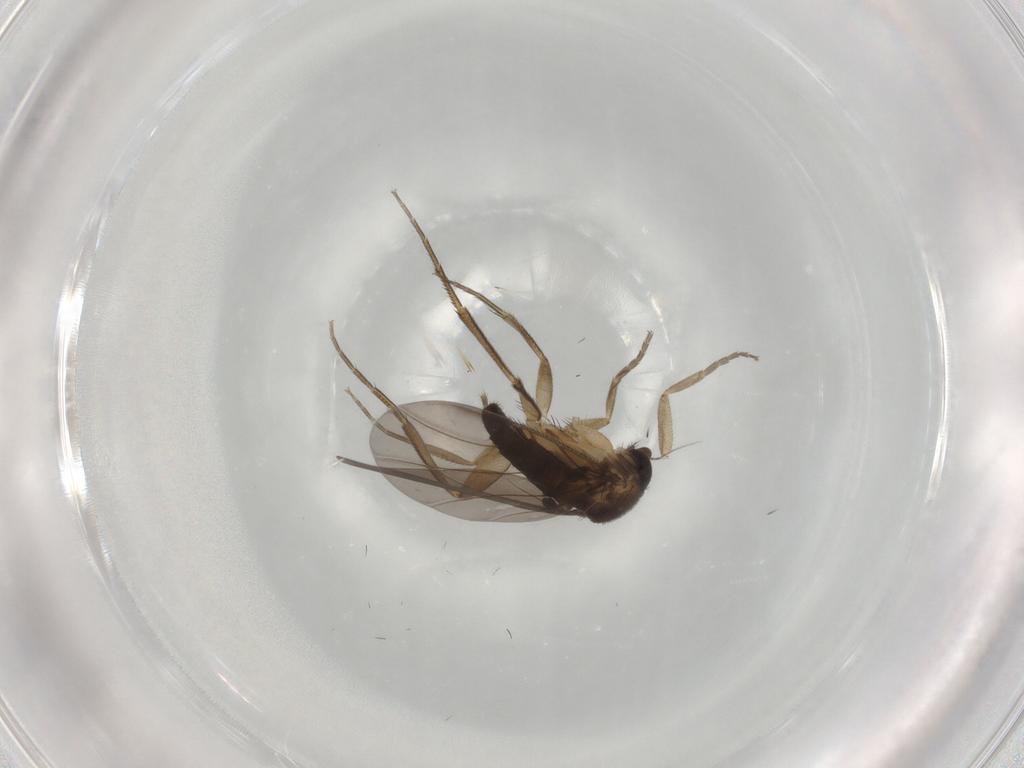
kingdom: Animalia
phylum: Arthropoda
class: Insecta
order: Diptera
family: Phoridae
